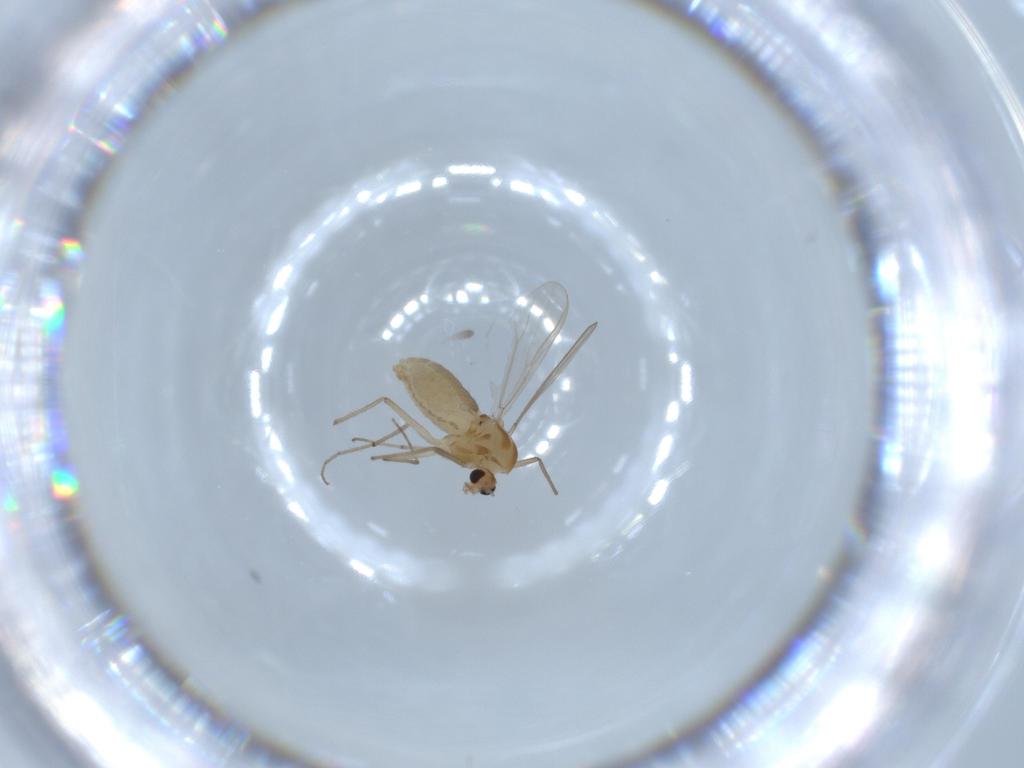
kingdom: Animalia
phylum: Arthropoda
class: Insecta
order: Diptera
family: Chironomidae
